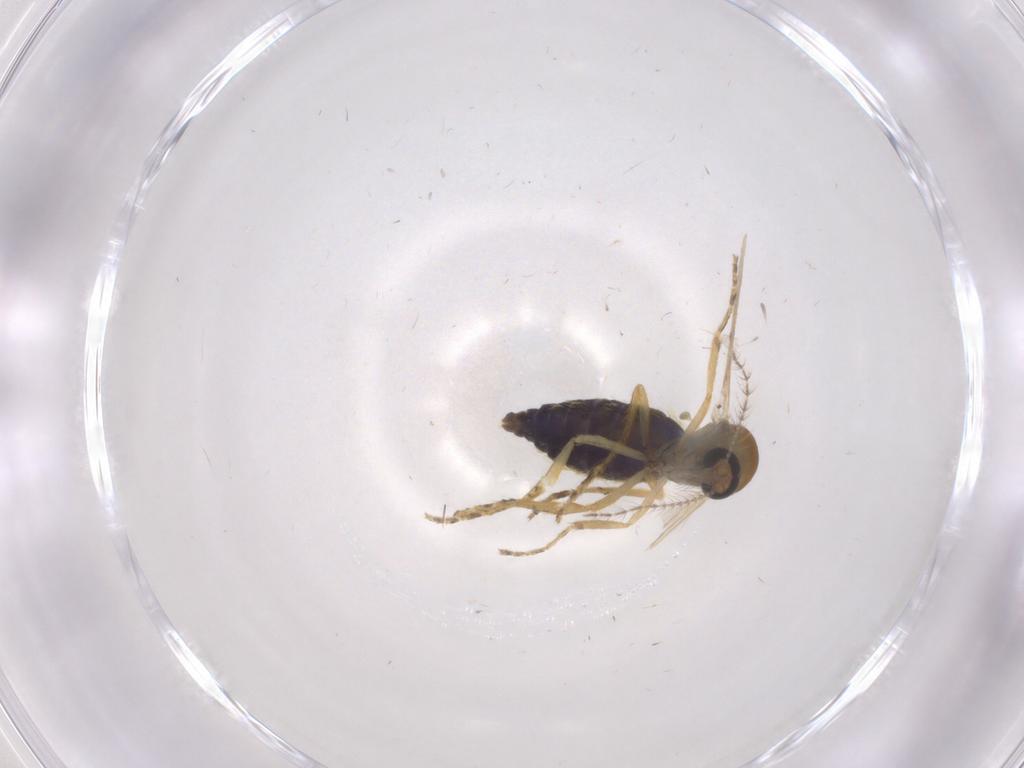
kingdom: Animalia
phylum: Arthropoda
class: Insecta
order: Diptera
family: Ceratopogonidae
